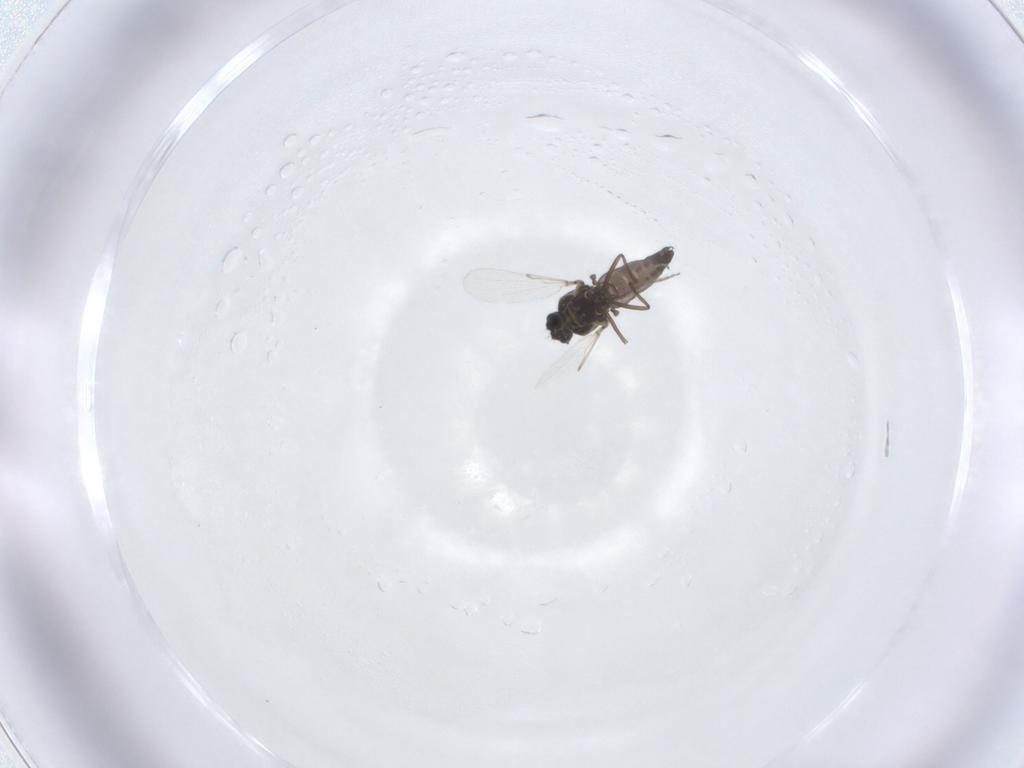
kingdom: Animalia
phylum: Arthropoda
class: Insecta
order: Diptera
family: Ceratopogonidae
